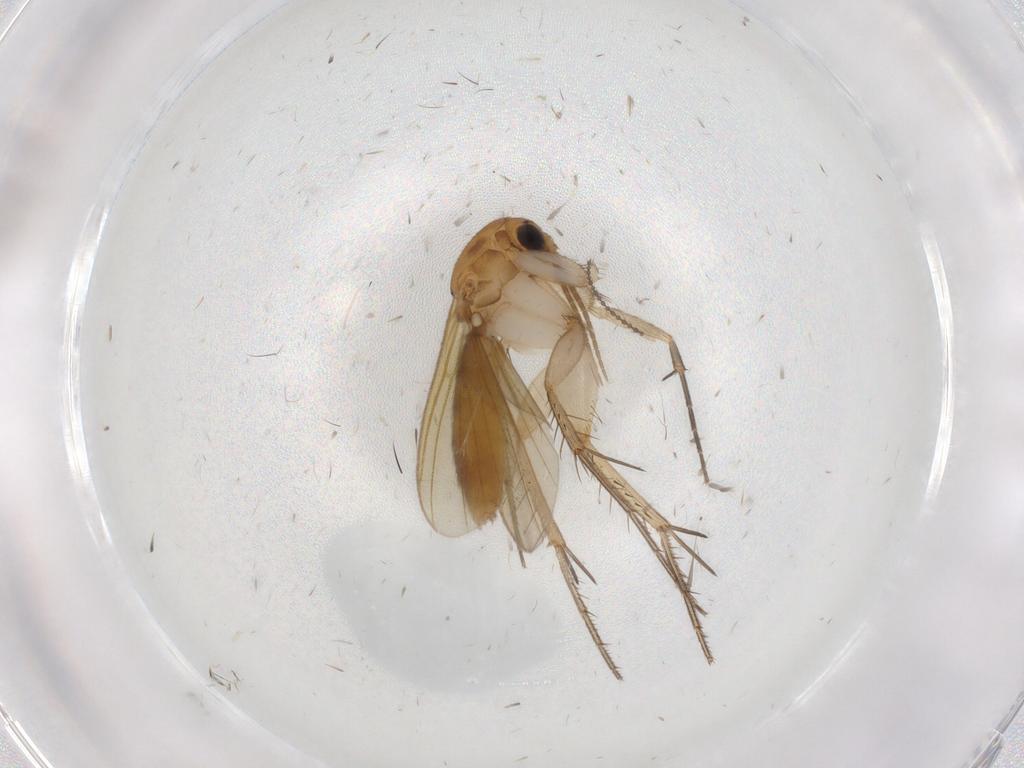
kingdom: Animalia
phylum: Arthropoda
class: Insecta
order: Diptera
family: Mycetophilidae
